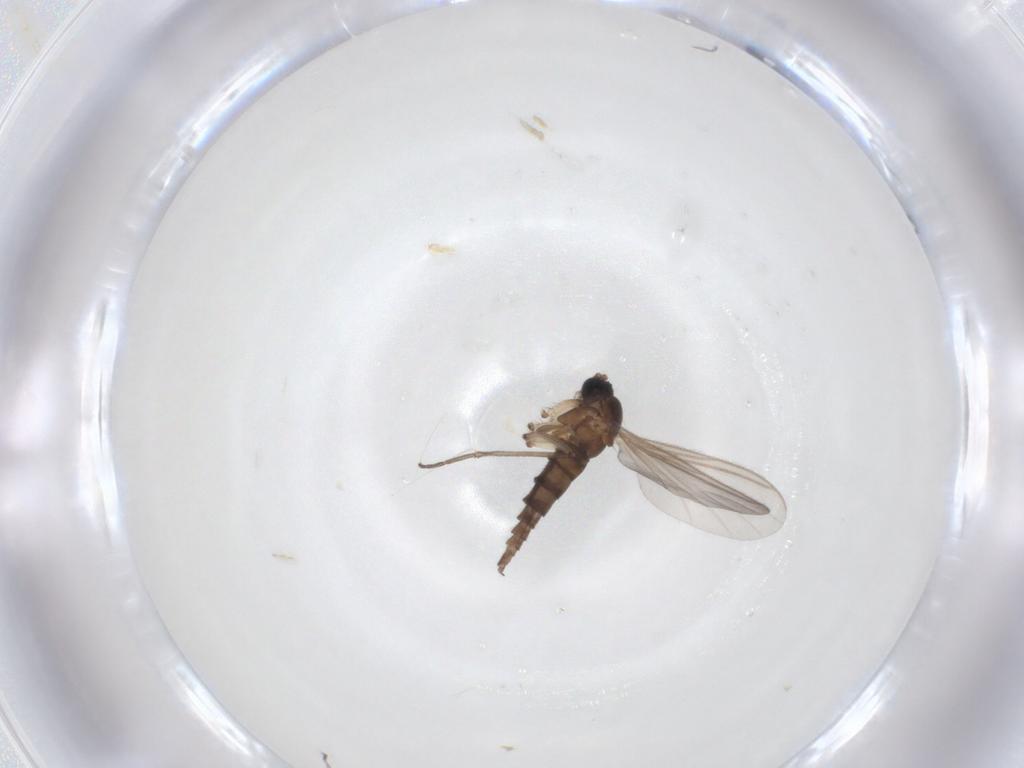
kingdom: Animalia
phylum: Arthropoda
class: Insecta
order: Diptera
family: Sciaridae
